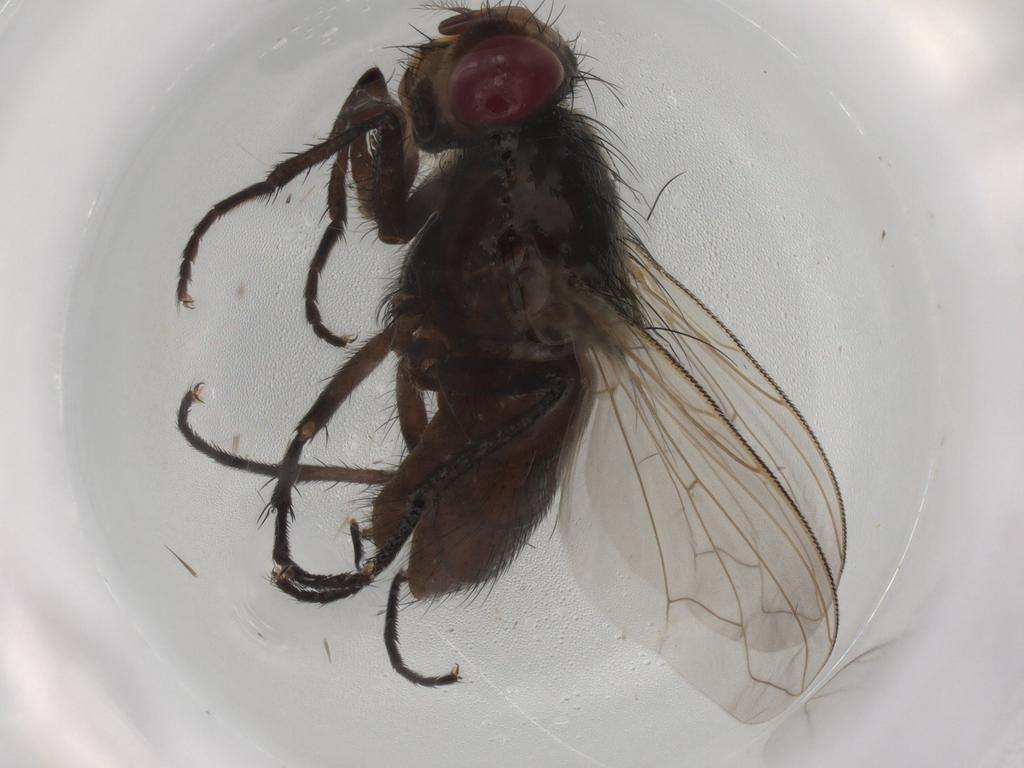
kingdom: Animalia
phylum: Arthropoda
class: Insecta
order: Diptera
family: Polleniidae
